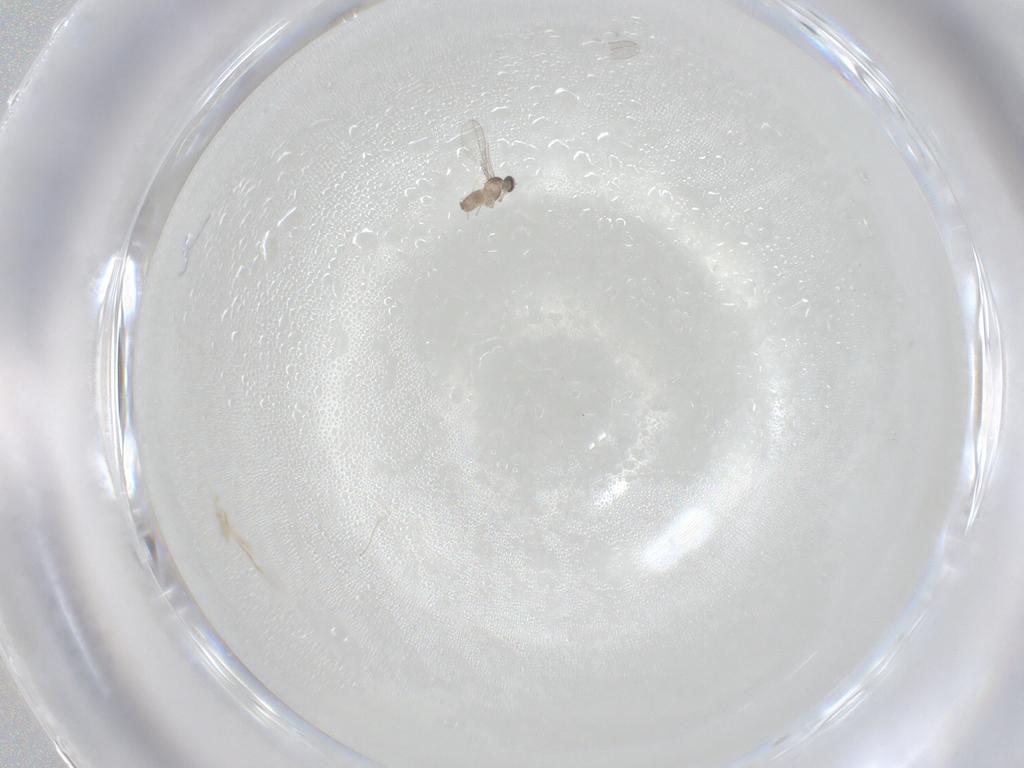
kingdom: Animalia
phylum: Arthropoda
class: Insecta
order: Diptera
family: Cecidomyiidae
